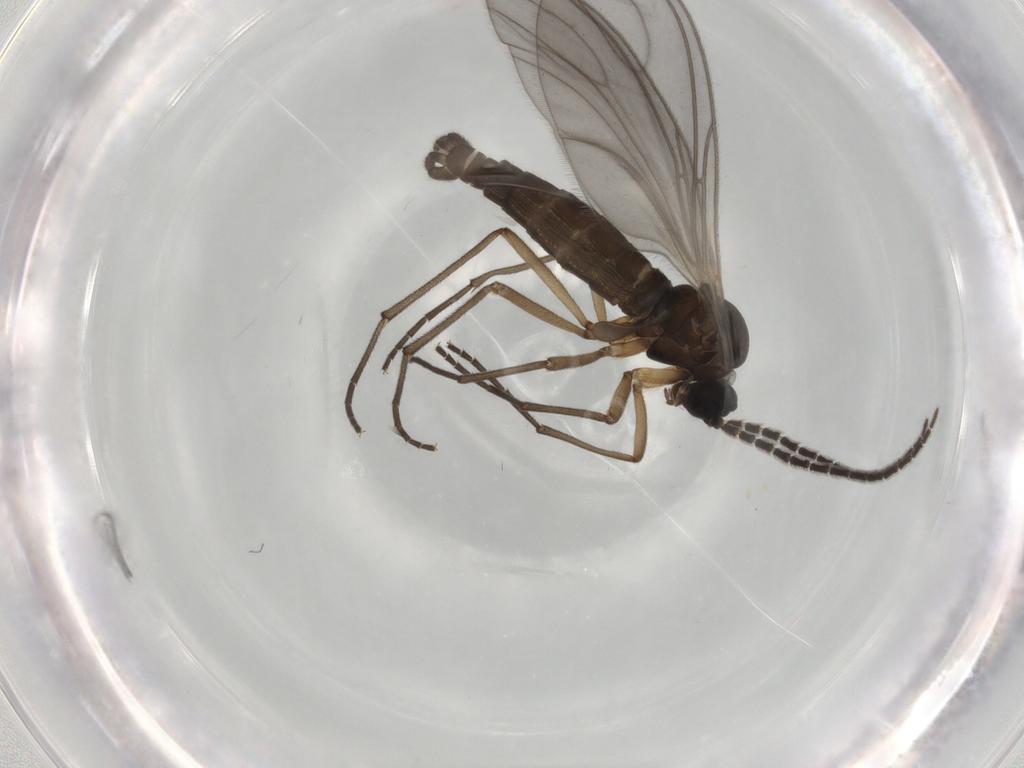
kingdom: Animalia
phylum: Arthropoda
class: Insecta
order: Diptera
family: Sciaridae
